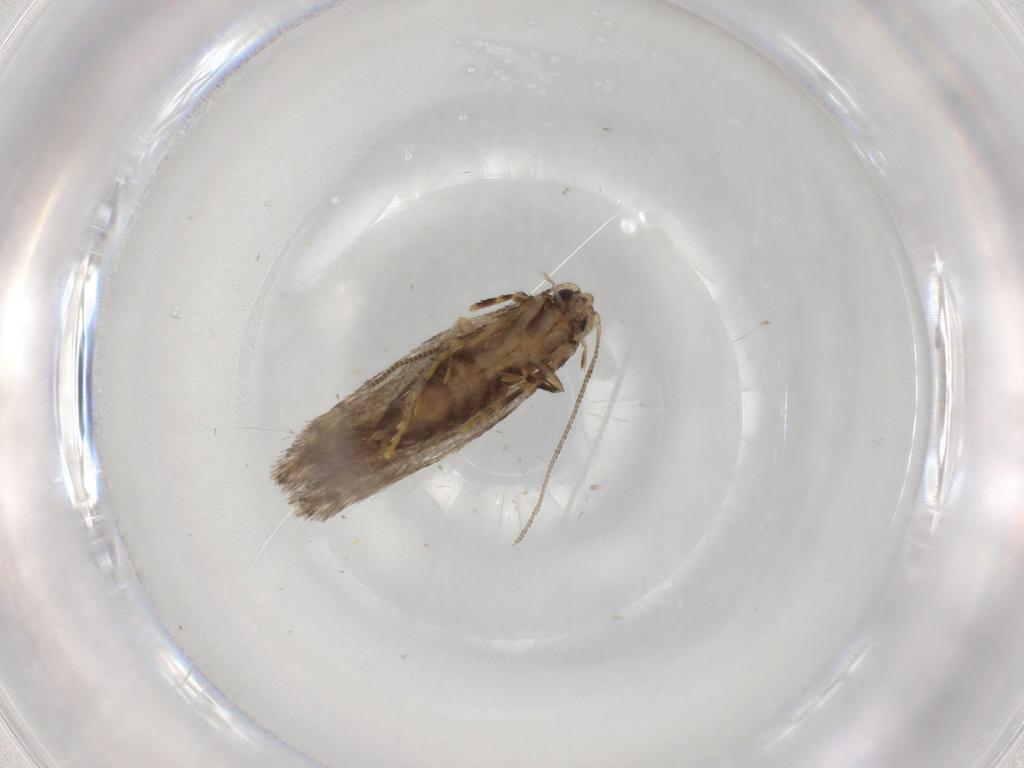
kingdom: Animalia
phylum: Arthropoda
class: Insecta
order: Lepidoptera
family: Tineidae
